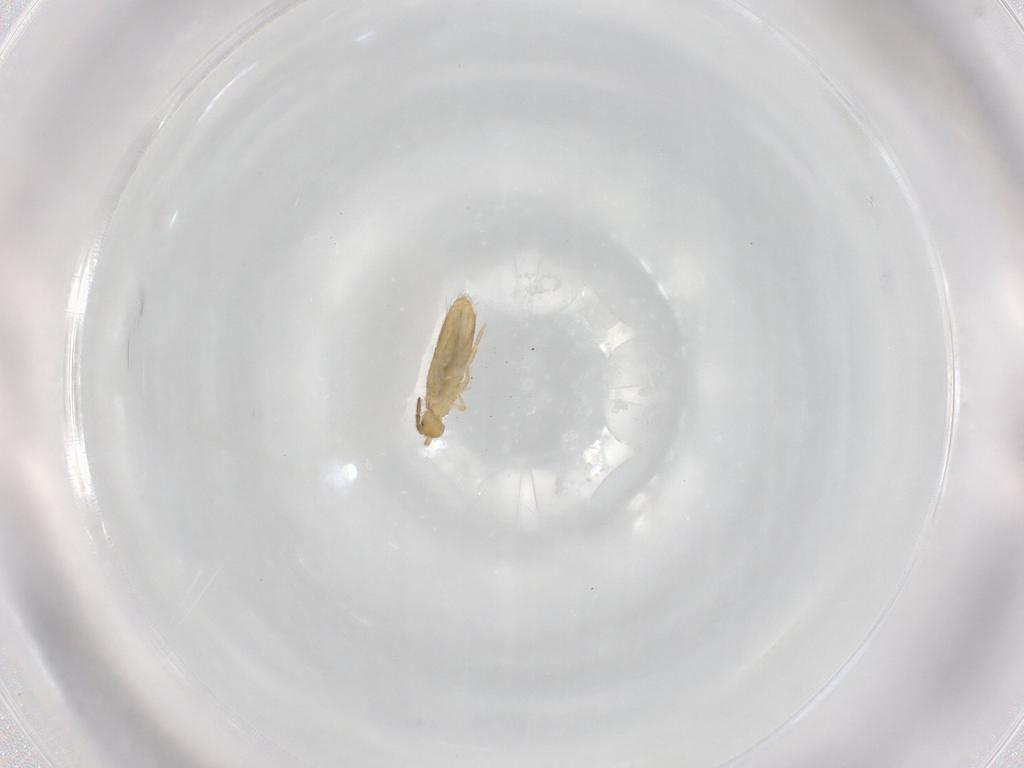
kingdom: Animalia
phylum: Arthropoda
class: Collembola
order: Entomobryomorpha
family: Entomobryidae
